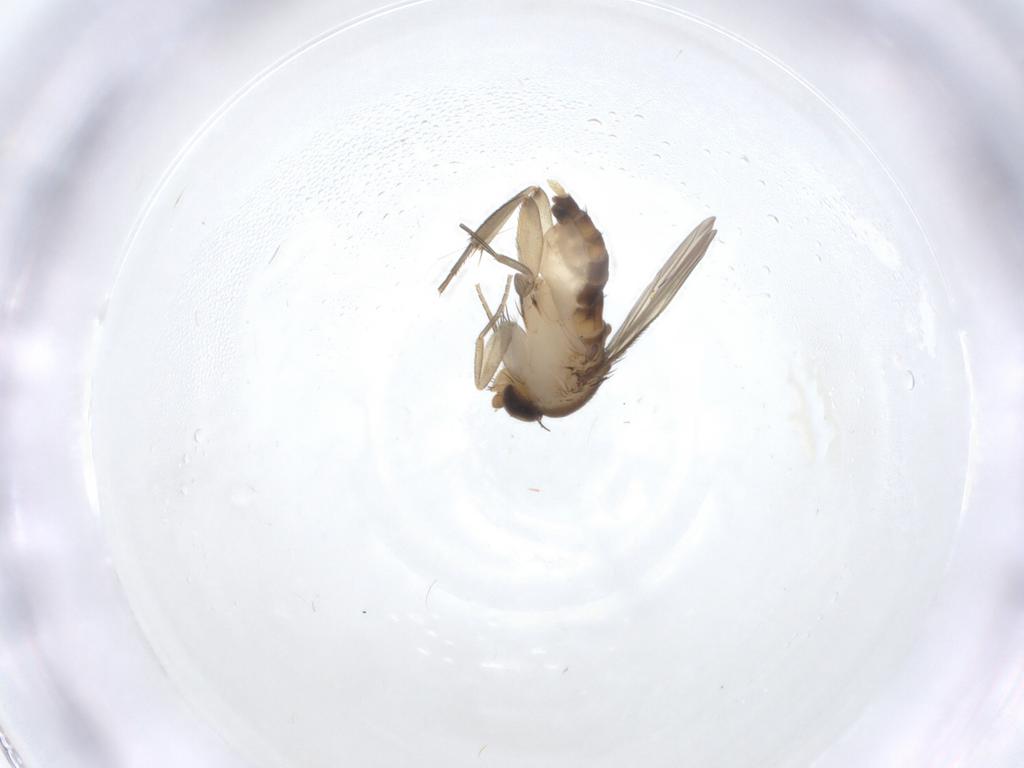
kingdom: Animalia
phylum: Arthropoda
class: Insecta
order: Diptera
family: Phoridae
